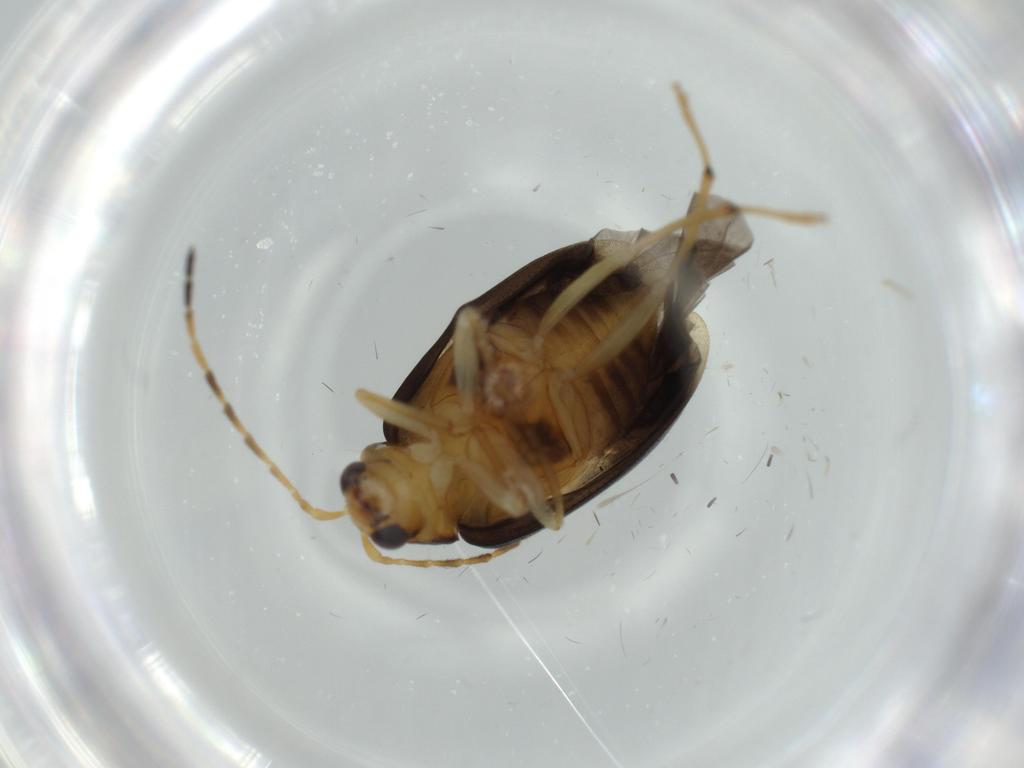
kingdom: Animalia
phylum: Arthropoda
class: Insecta
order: Coleoptera
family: Chrysomelidae
